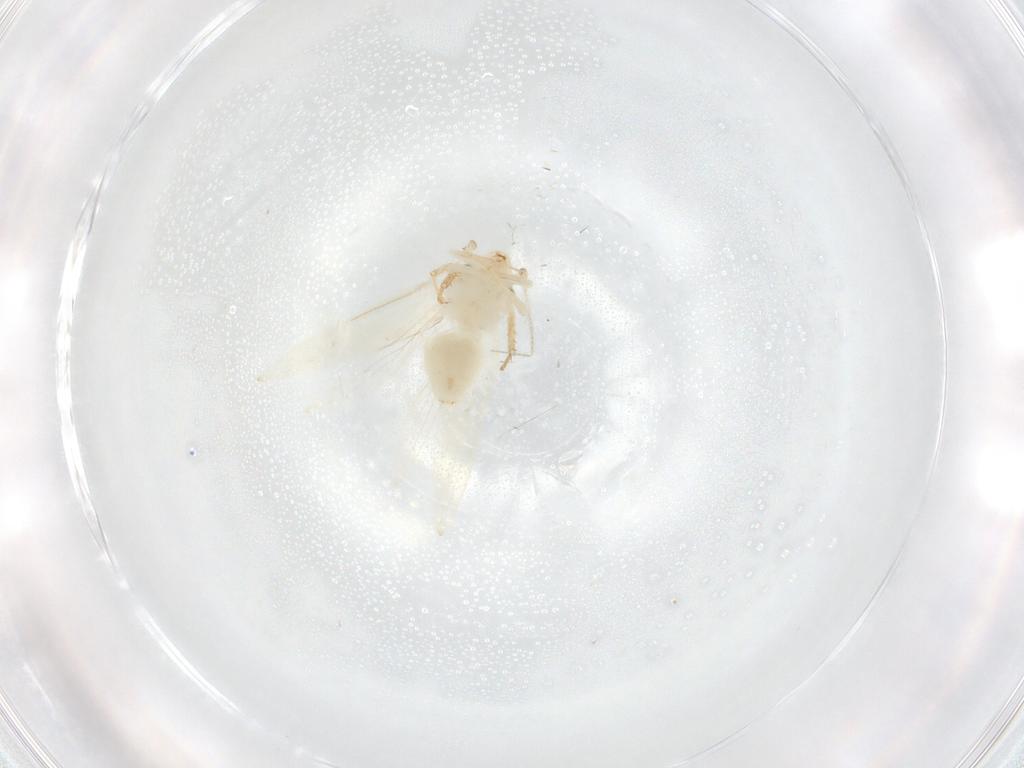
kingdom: Animalia
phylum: Arthropoda
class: Insecta
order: Psocodea
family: Lepidopsocidae
